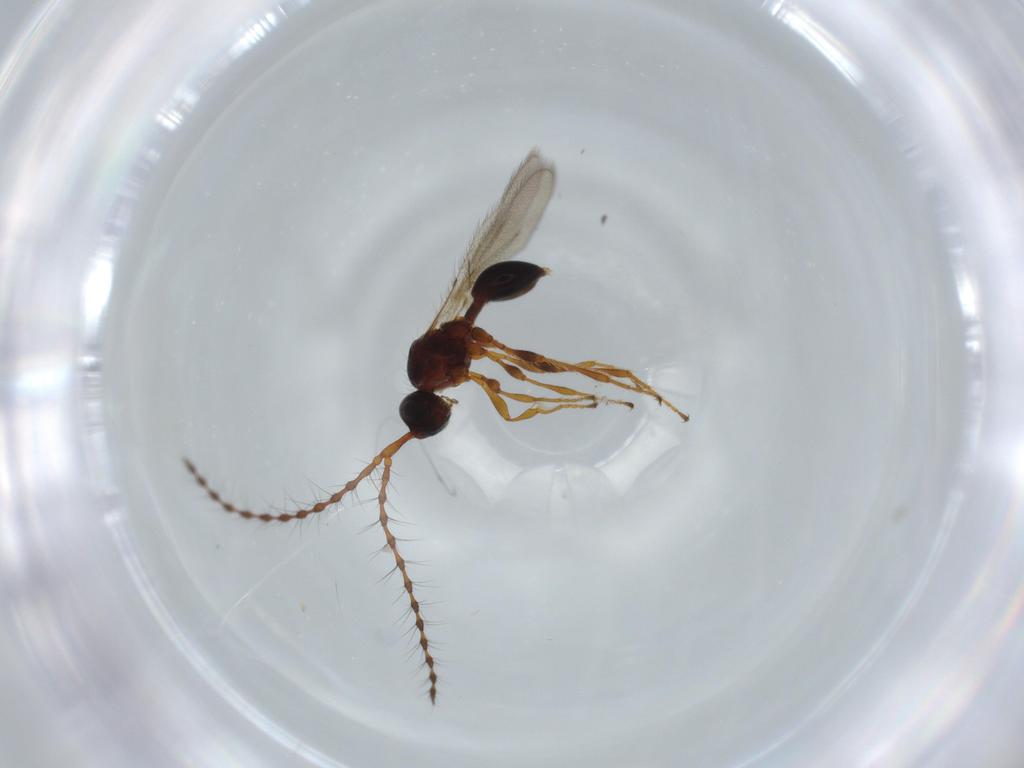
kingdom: Animalia
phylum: Arthropoda
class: Insecta
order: Hymenoptera
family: Diapriidae
